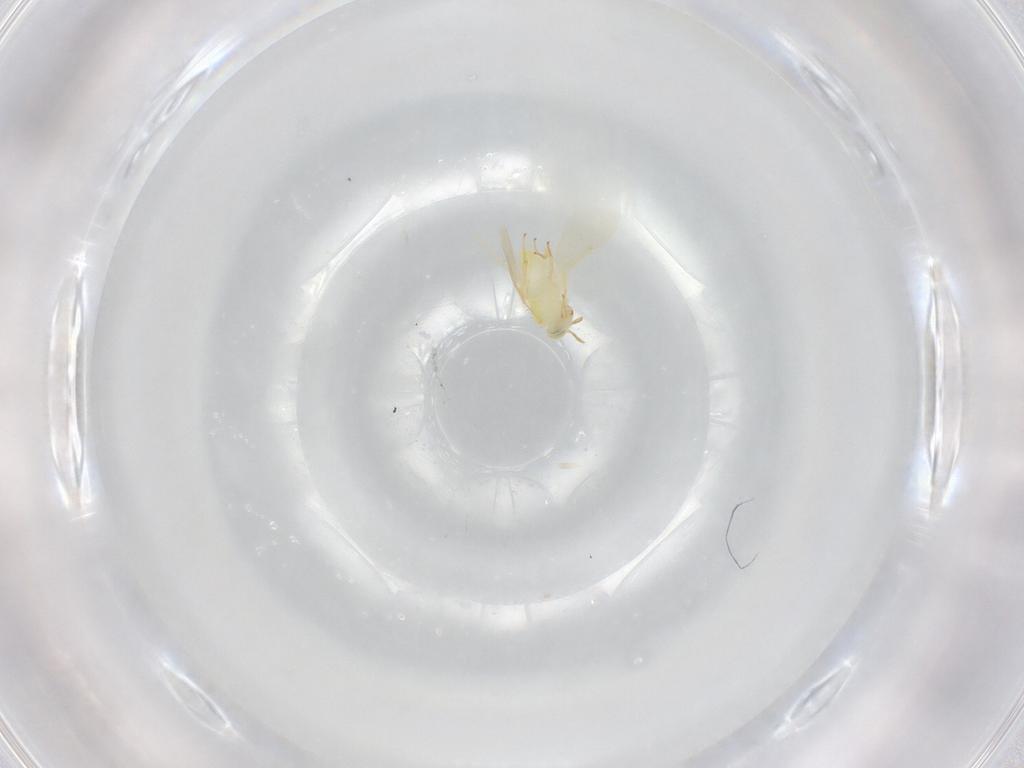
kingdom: Animalia
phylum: Arthropoda
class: Insecta
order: Hymenoptera
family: Aphelinidae
